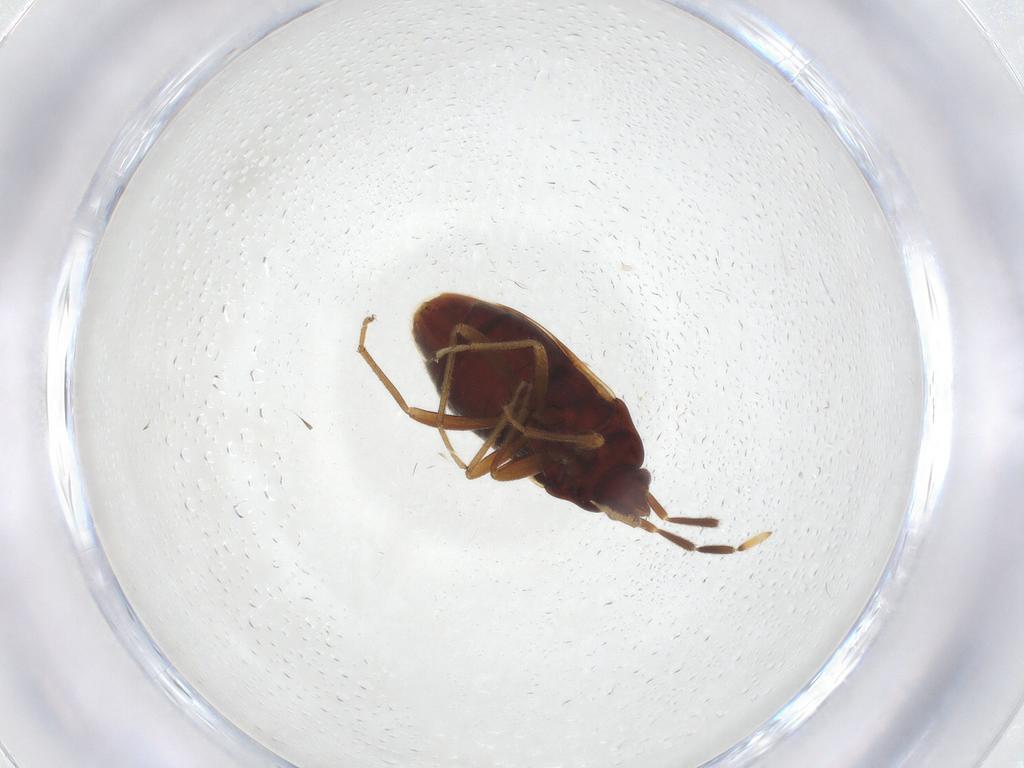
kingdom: Animalia
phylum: Arthropoda
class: Insecta
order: Hemiptera
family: Rhyparochromidae
